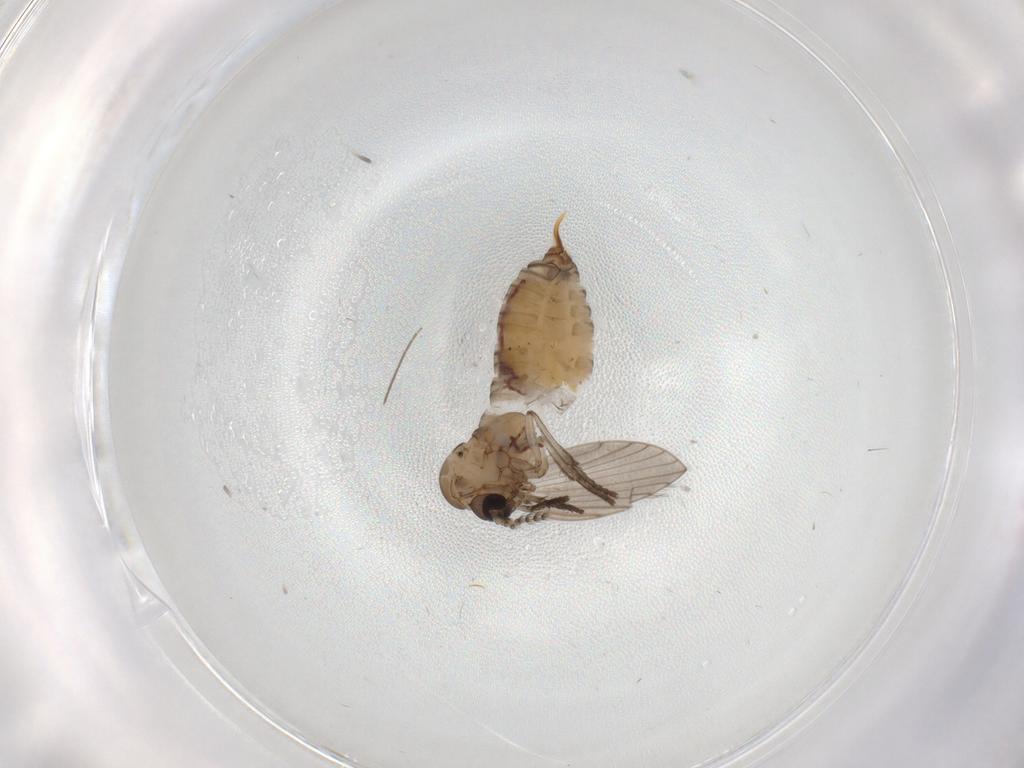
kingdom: Animalia
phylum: Arthropoda
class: Insecta
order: Diptera
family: Psychodidae
